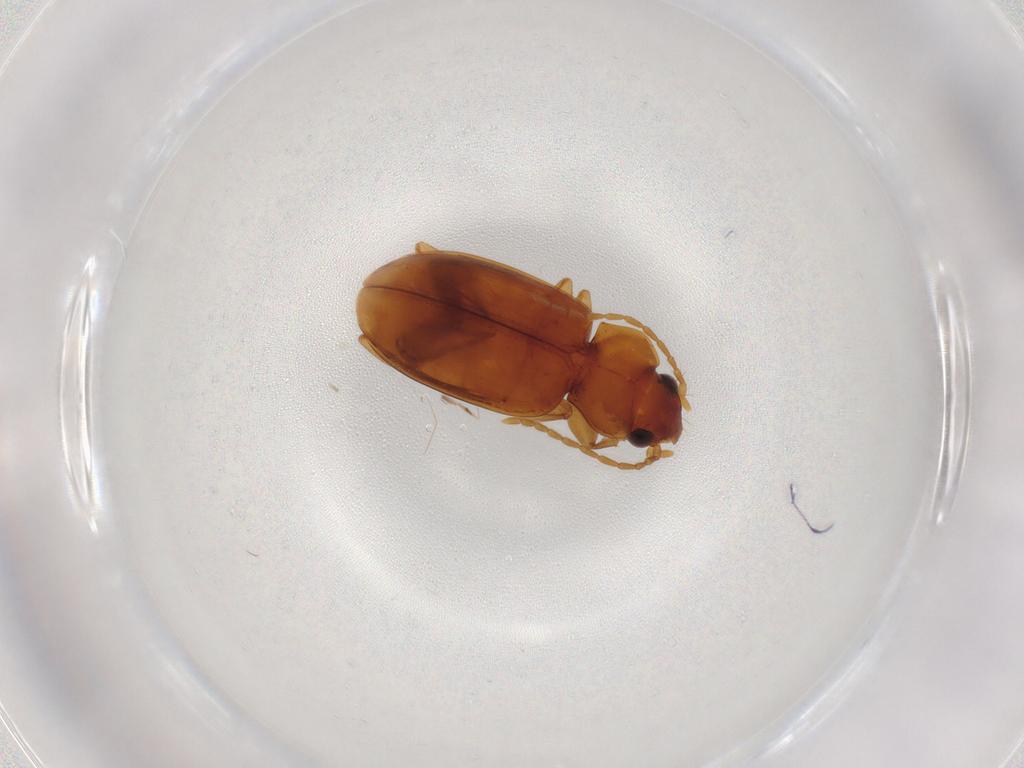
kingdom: Animalia
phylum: Arthropoda
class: Insecta
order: Coleoptera
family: Carabidae
